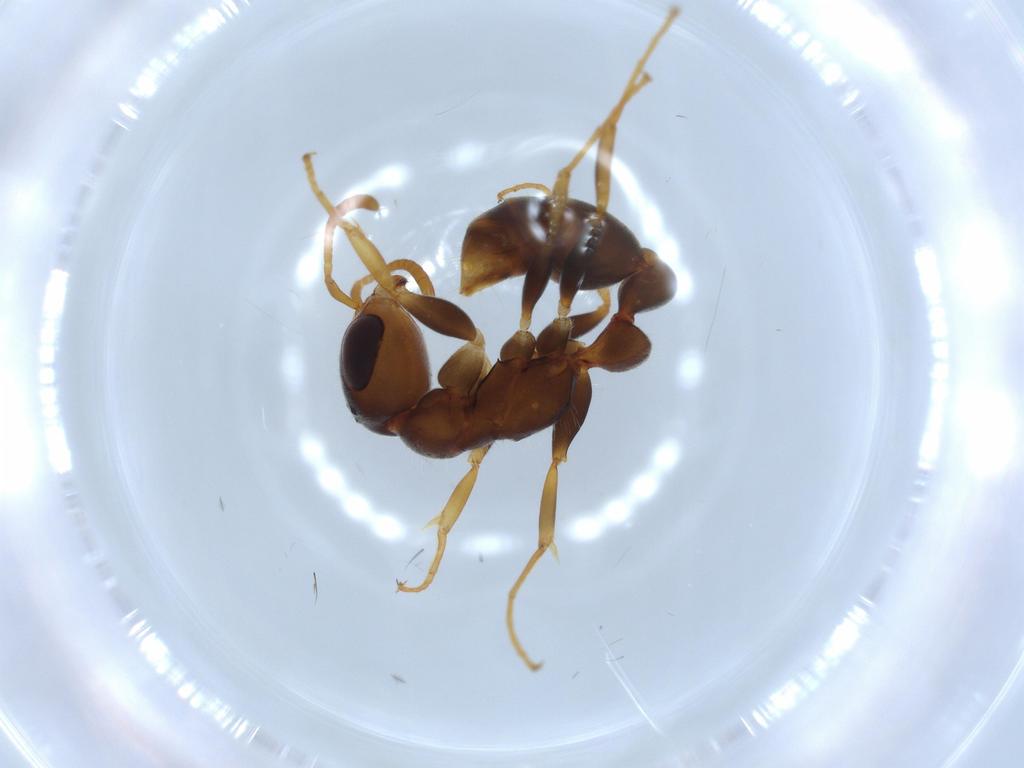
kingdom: Animalia
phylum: Arthropoda
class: Insecta
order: Hymenoptera
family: Formicidae
